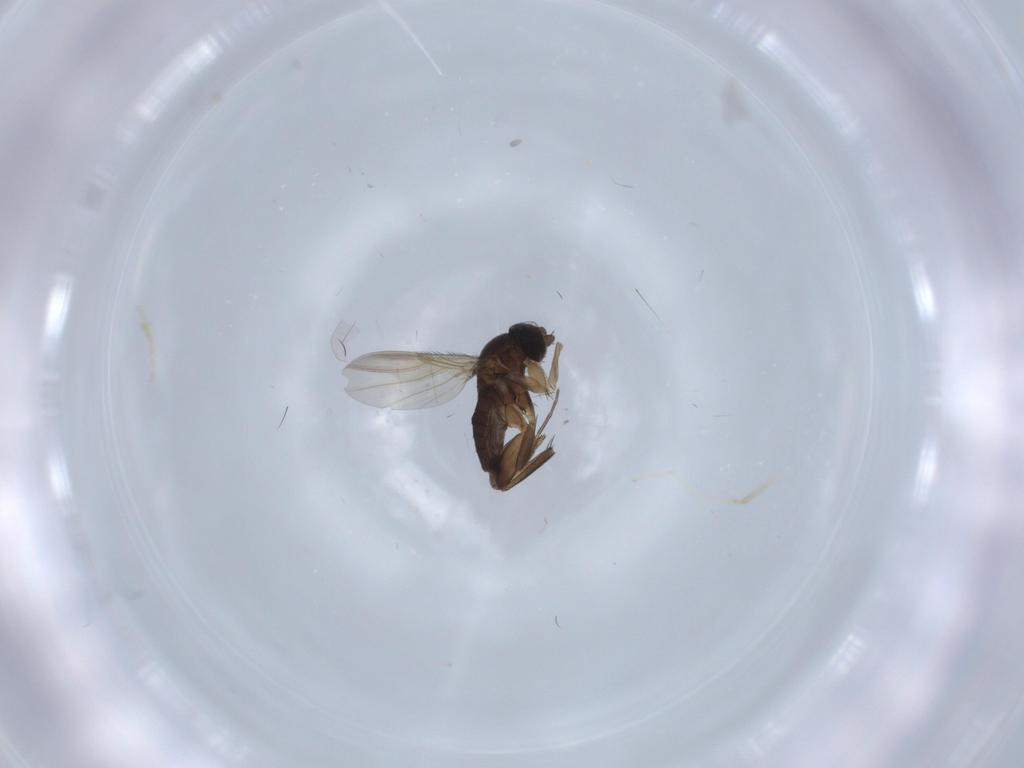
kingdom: Animalia
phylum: Arthropoda
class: Insecta
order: Diptera
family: Phoridae
